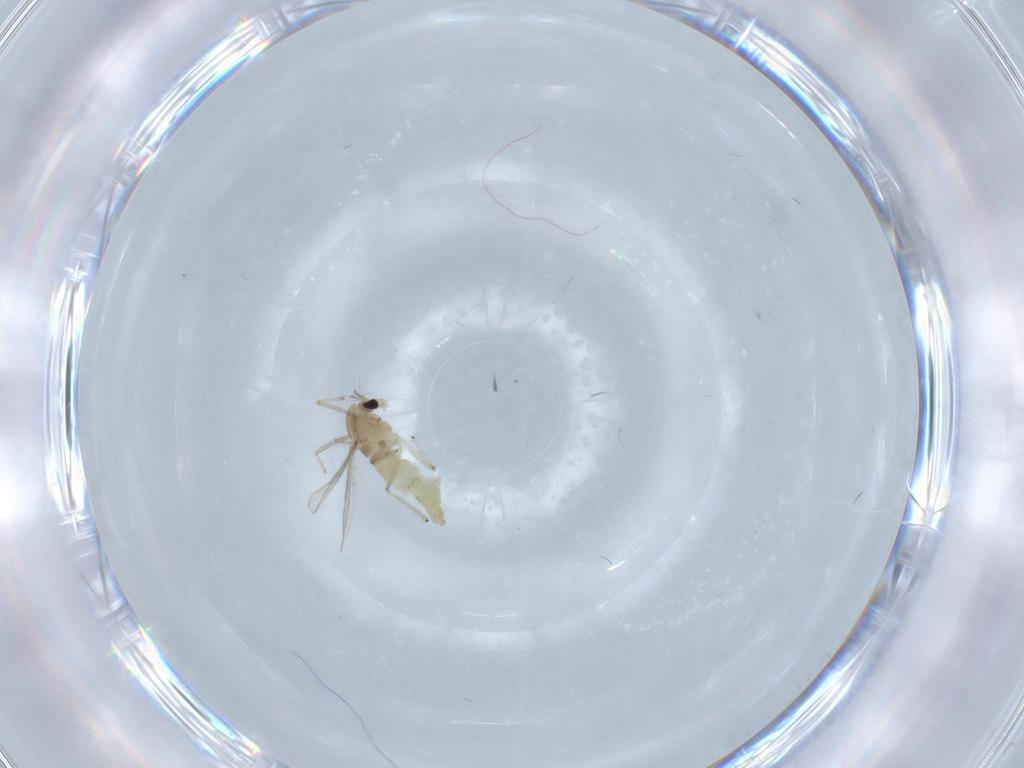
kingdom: Animalia
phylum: Arthropoda
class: Insecta
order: Diptera
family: Chironomidae
